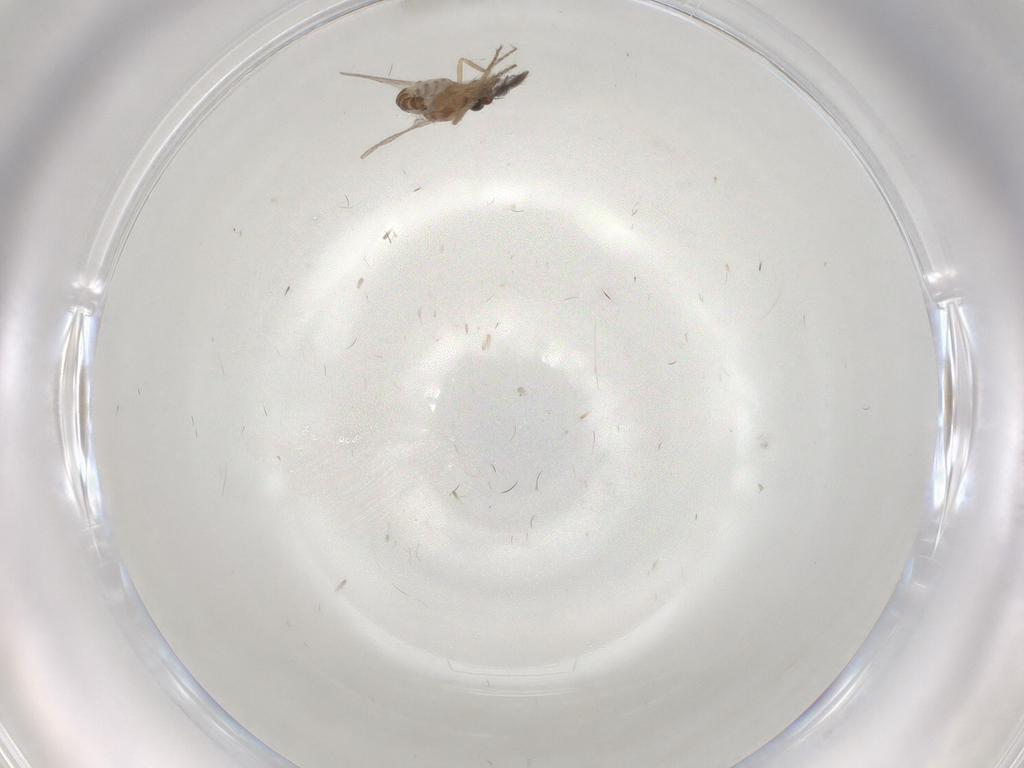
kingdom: Animalia
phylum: Arthropoda
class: Insecta
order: Diptera
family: Ceratopogonidae
